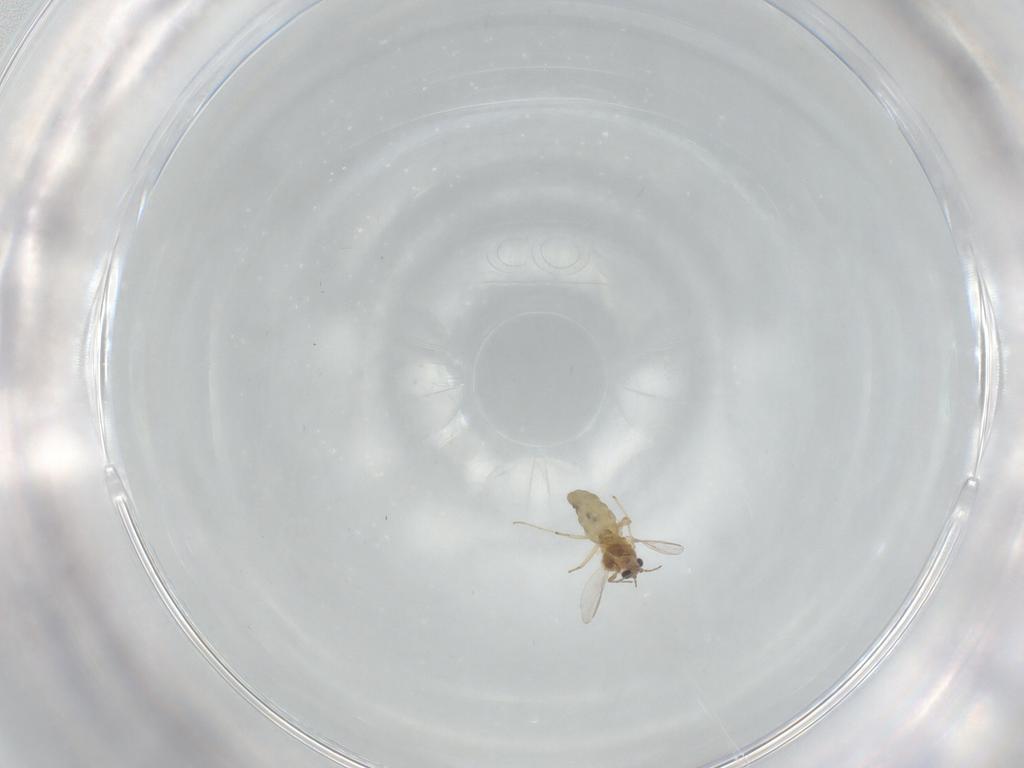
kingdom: Animalia
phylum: Arthropoda
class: Insecta
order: Diptera
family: Chironomidae
